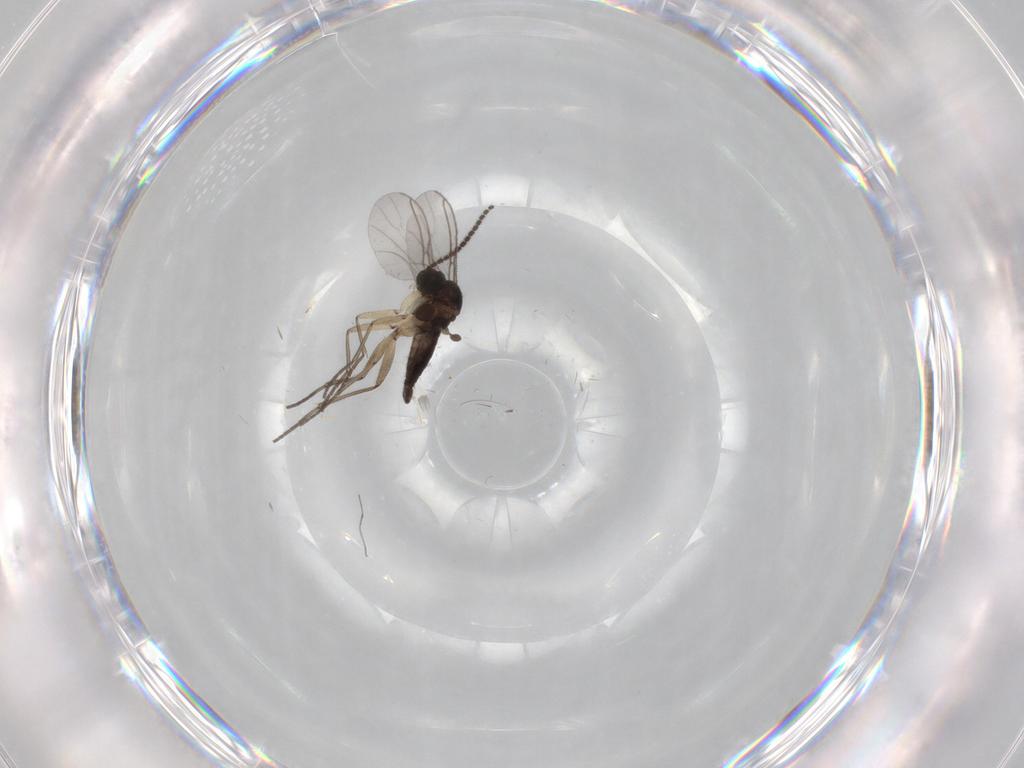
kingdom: Animalia
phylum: Arthropoda
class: Insecta
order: Diptera
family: Sciaridae
